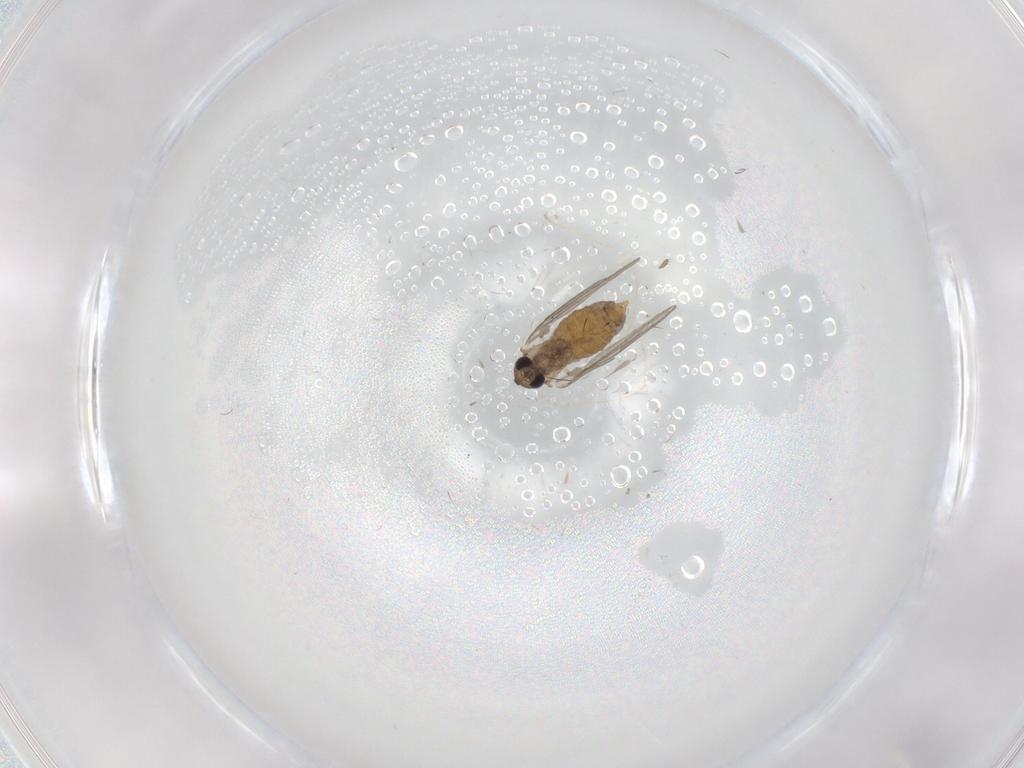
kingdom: Animalia
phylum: Arthropoda
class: Insecta
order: Diptera
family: Phoridae
